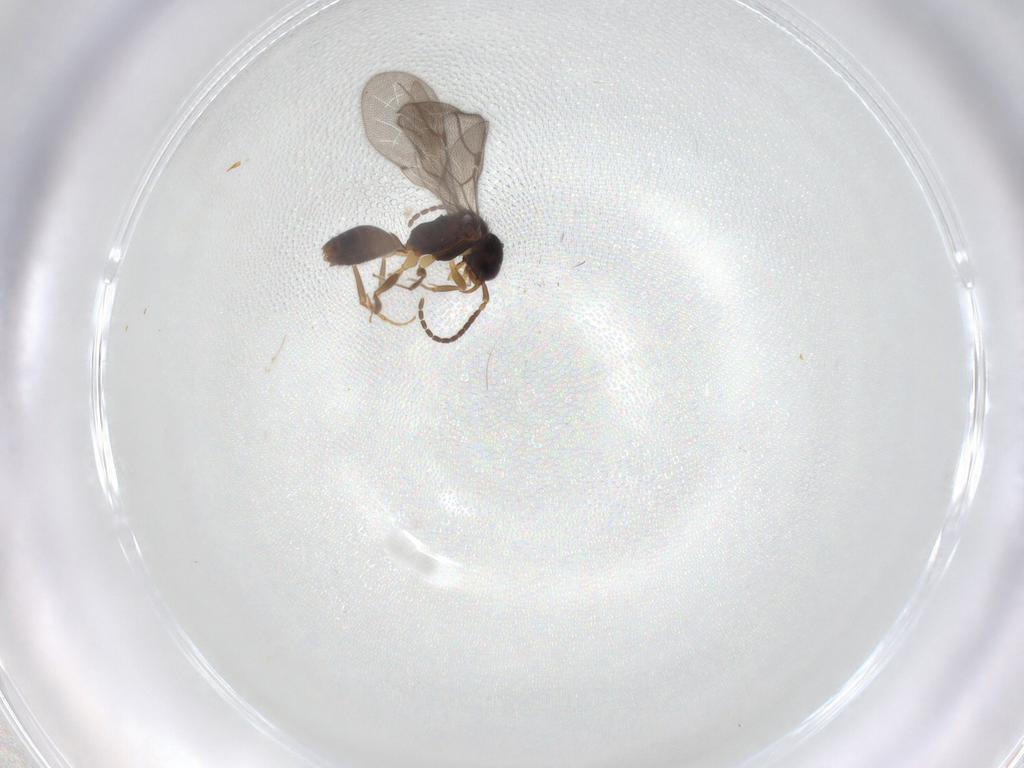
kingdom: Animalia
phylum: Arthropoda
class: Insecta
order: Hymenoptera
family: Bethylidae
